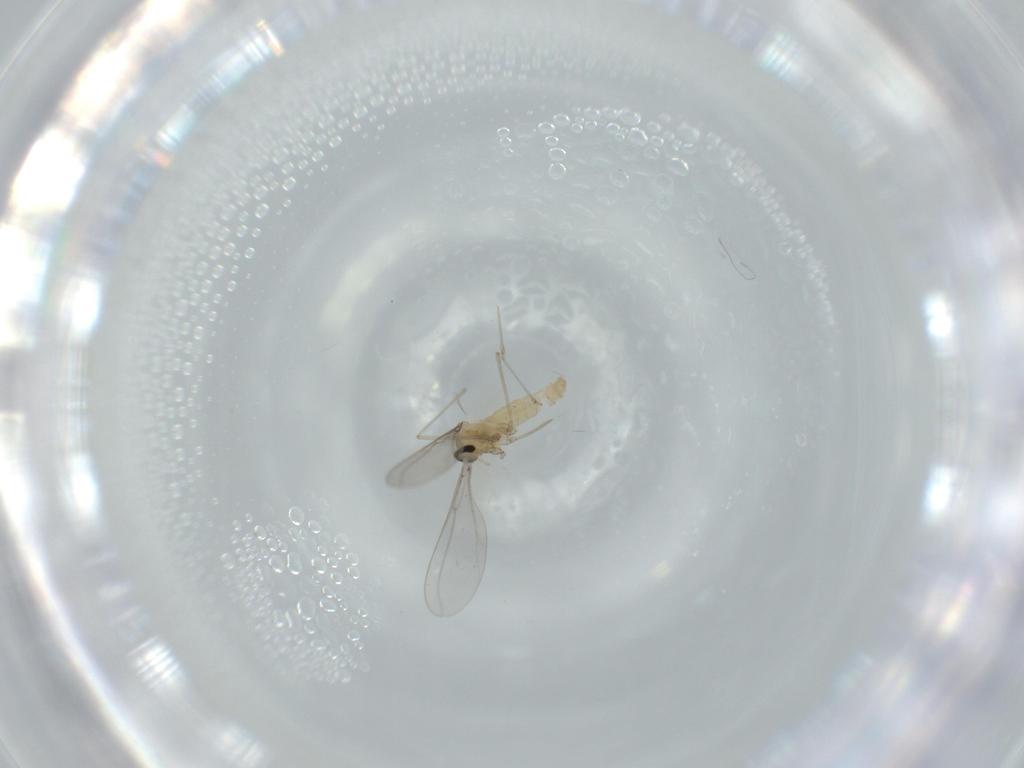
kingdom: Animalia
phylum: Arthropoda
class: Insecta
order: Diptera
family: Cecidomyiidae
